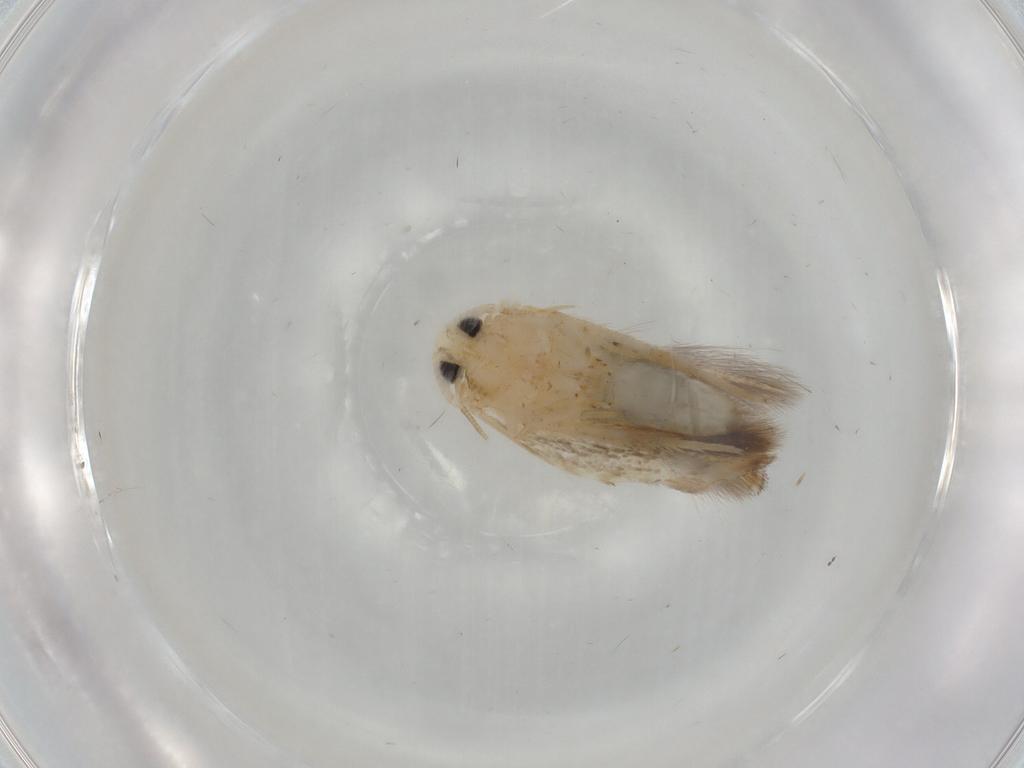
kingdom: Animalia
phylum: Arthropoda
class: Insecta
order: Lepidoptera
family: Opostegidae
